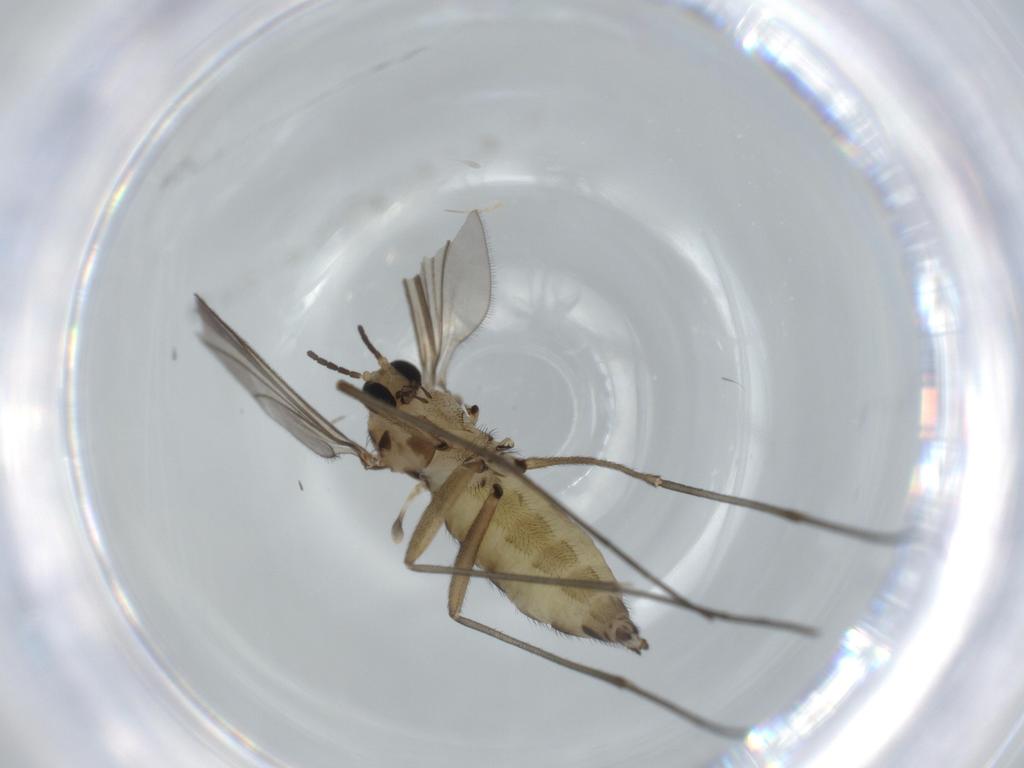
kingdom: Animalia
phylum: Arthropoda
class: Insecta
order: Diptera
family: Sciaridae
